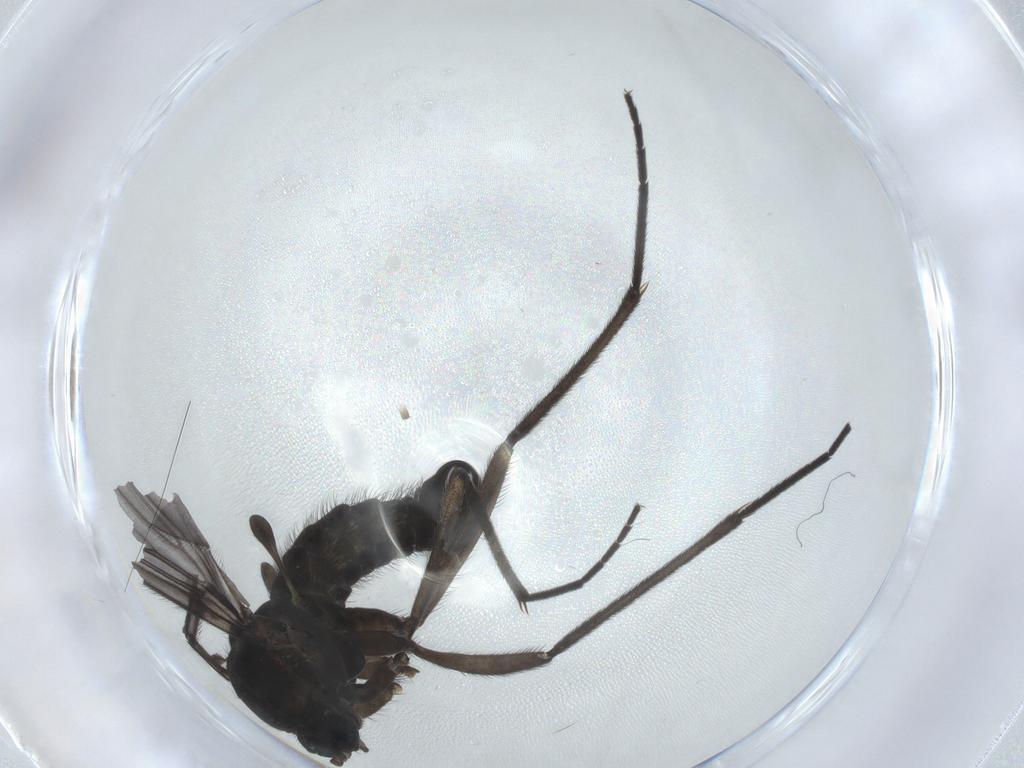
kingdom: Animalia
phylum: Arthropoda
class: Insecta
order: Diptera
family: Sciaridae
